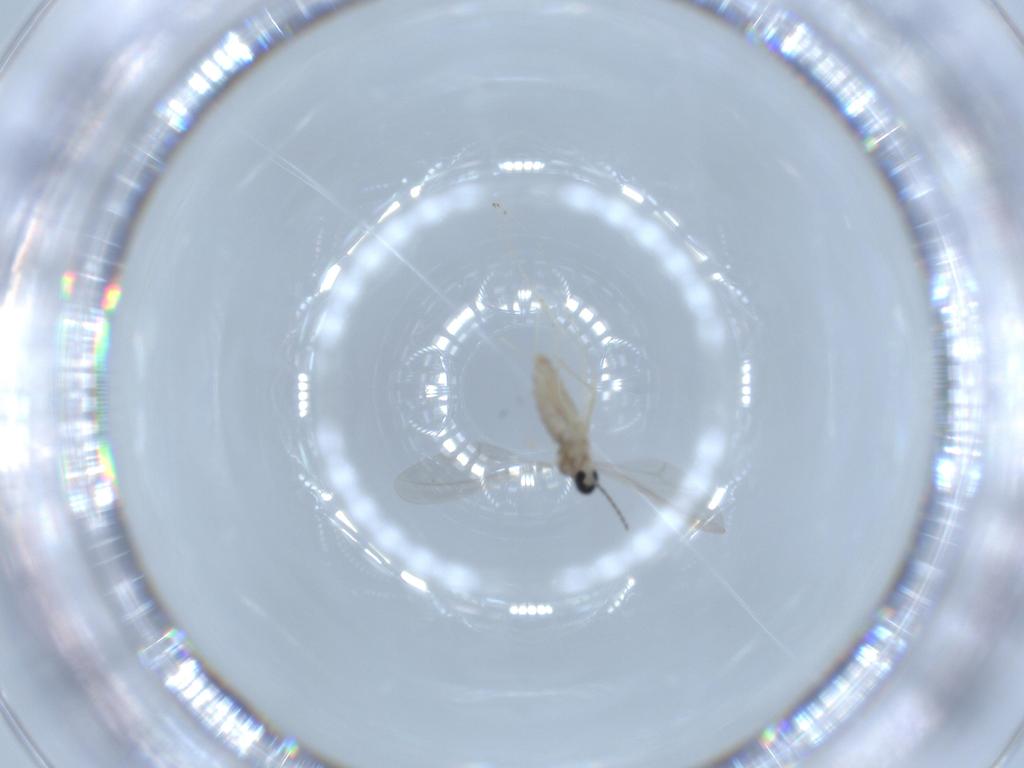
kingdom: Animalia
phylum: Arthropoda
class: Insecta
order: Diptera
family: Cecidomyiidae
